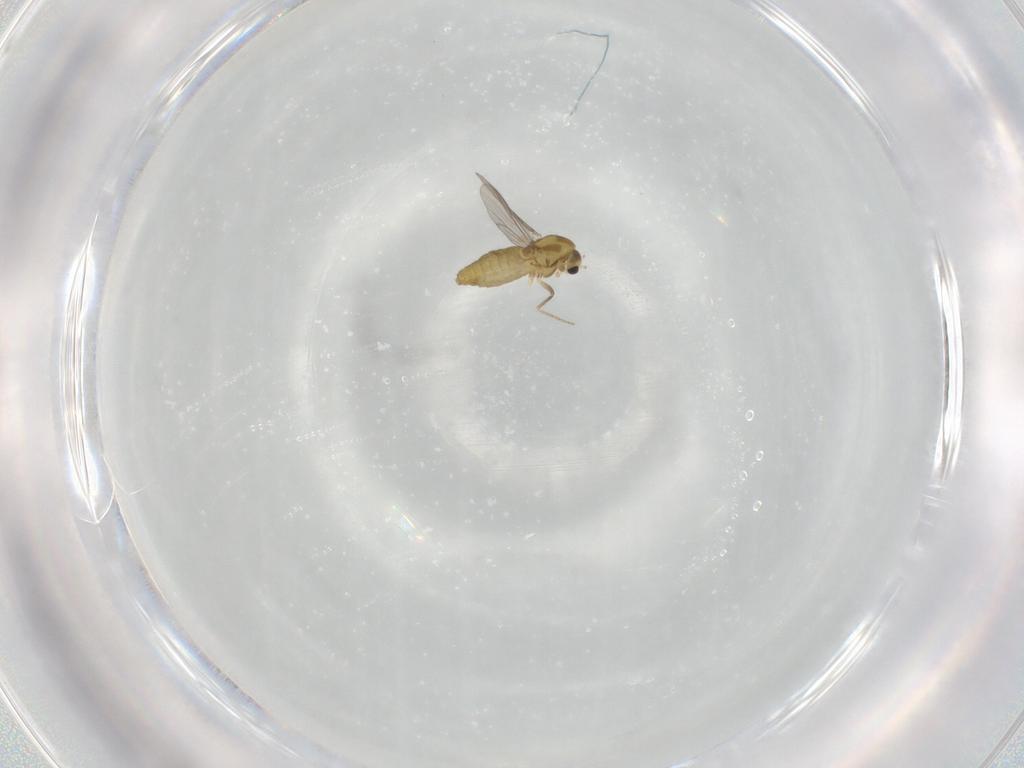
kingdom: Animalia
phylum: Arthropoda
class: Insecta
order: Diptera
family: Chironomidae
